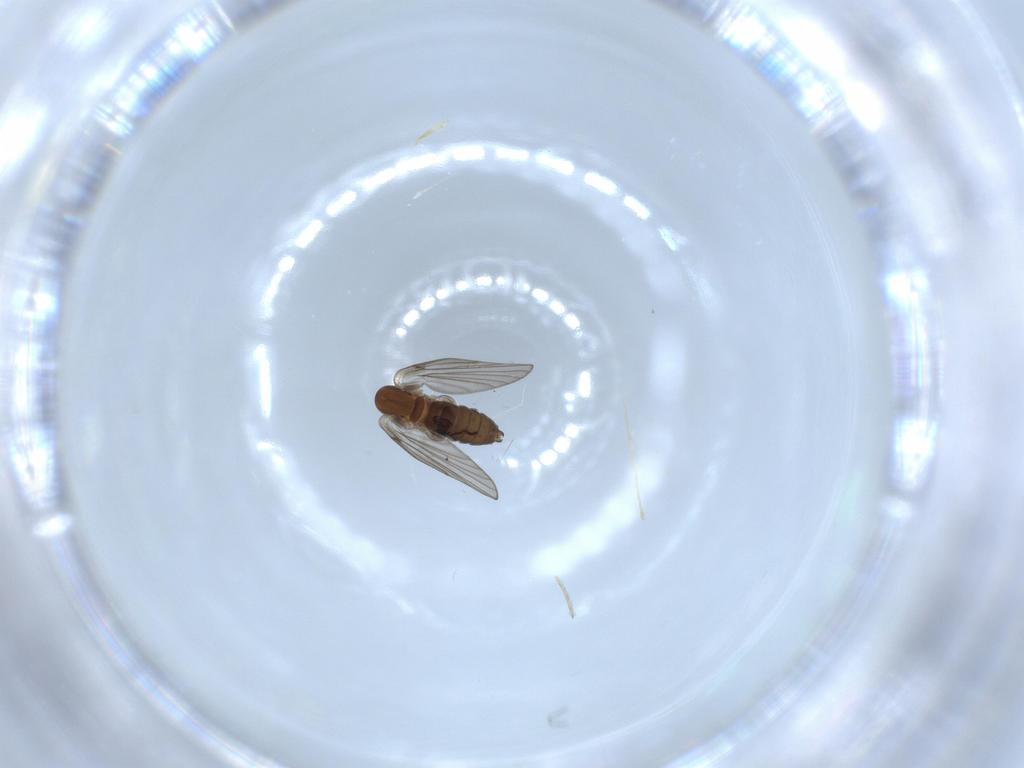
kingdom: Animalia
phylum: Arthropoda
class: Insecta
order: Diptera
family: Psychodidae
